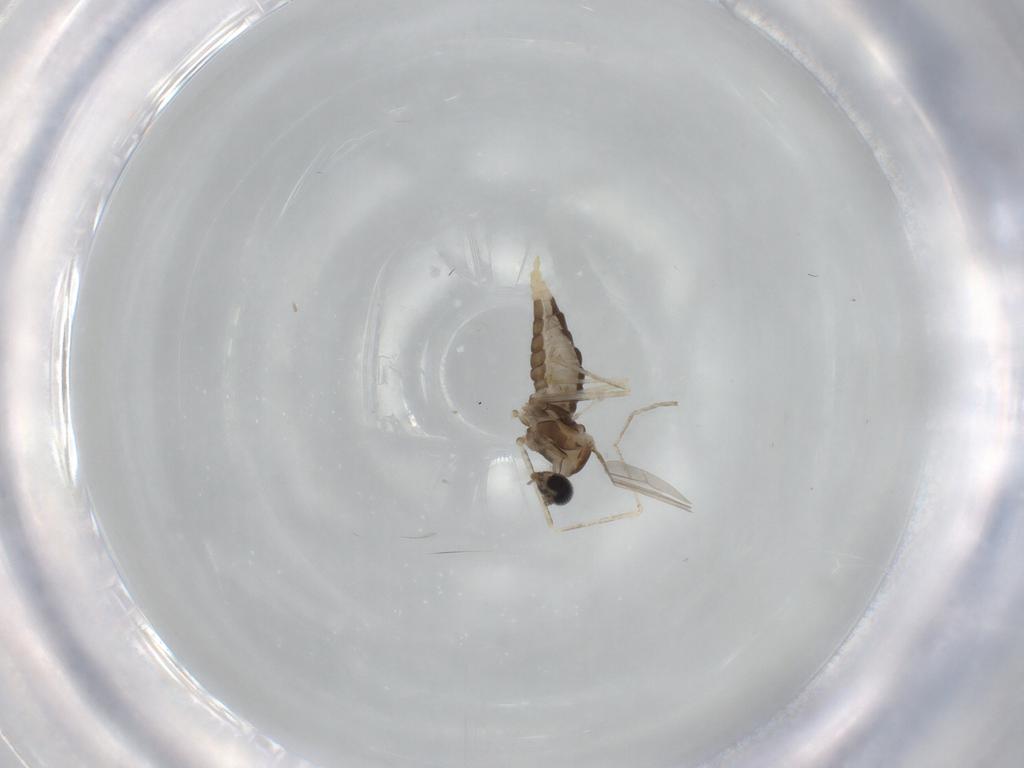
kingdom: Animalia
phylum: Arthropoda
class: Insecta
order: Diptera
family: Cecidomyiidae
